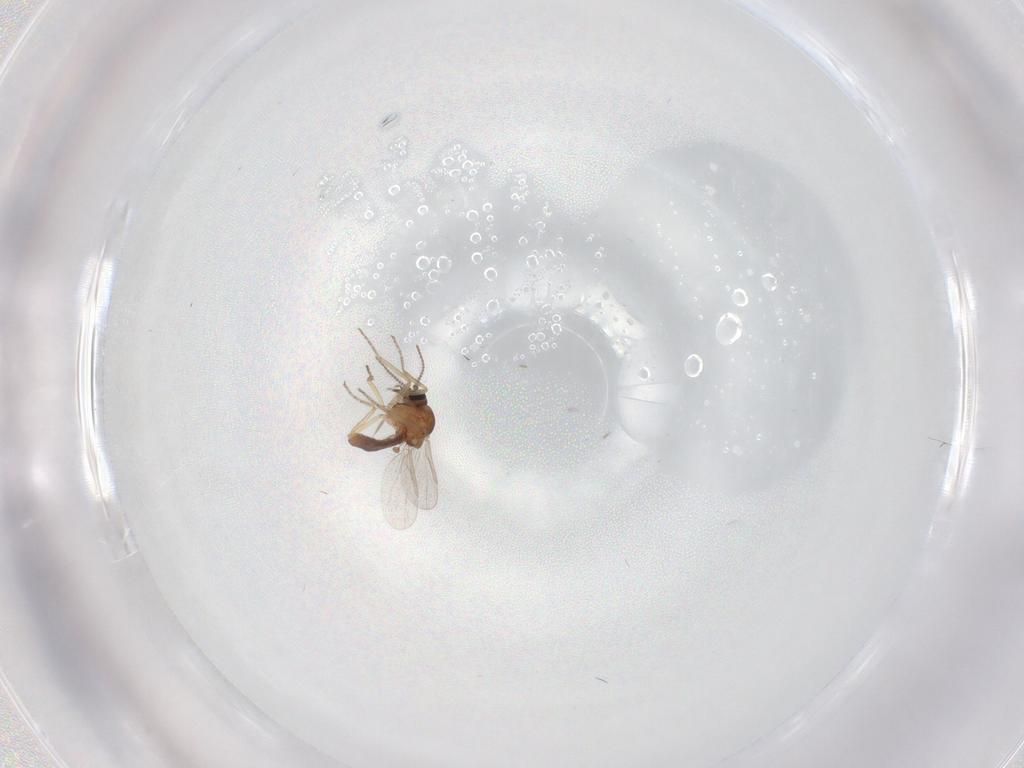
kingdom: Animalia
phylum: Arthropoda
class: Insecta
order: Diptera
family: Ceratopogonidae
